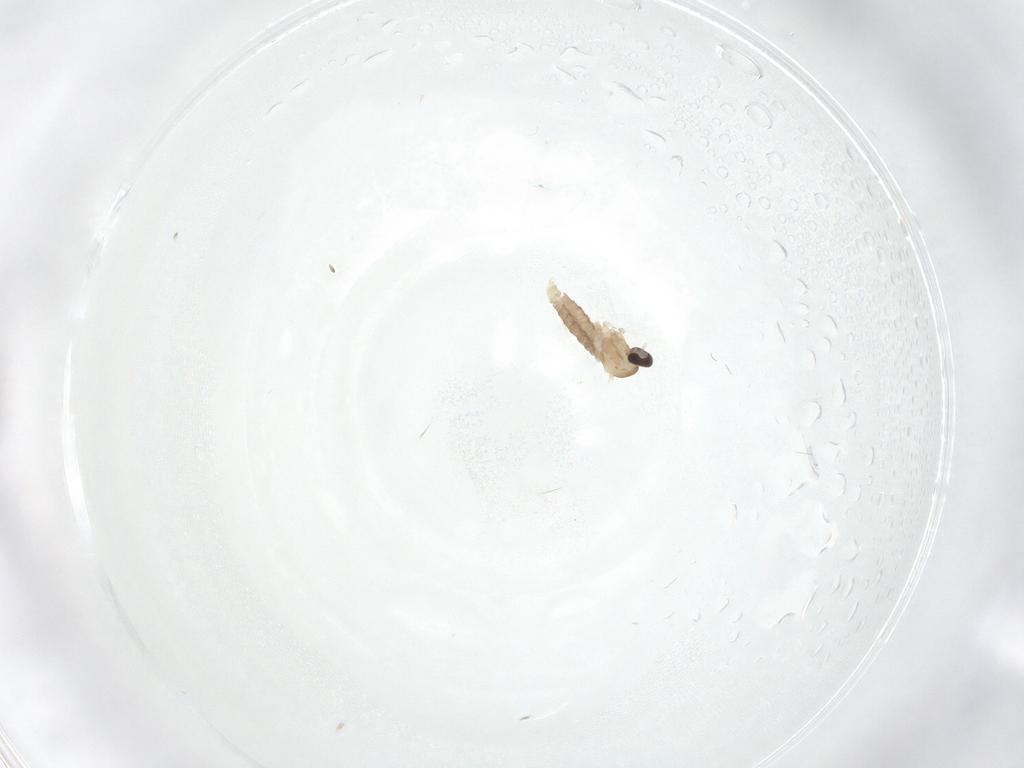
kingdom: Animalia
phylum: Arthropoda
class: Insecta
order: Diptera
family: Cecidomyiidae
